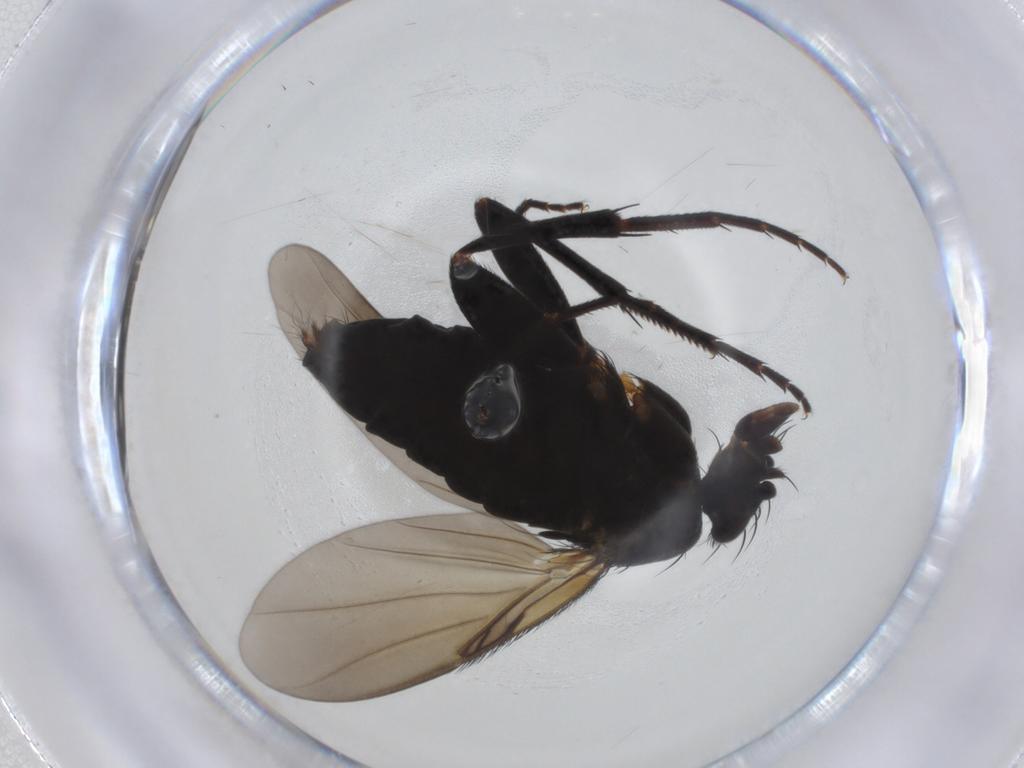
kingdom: Animalia
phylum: Arthropoda
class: Insecta
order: Diptera
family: Phoridae
